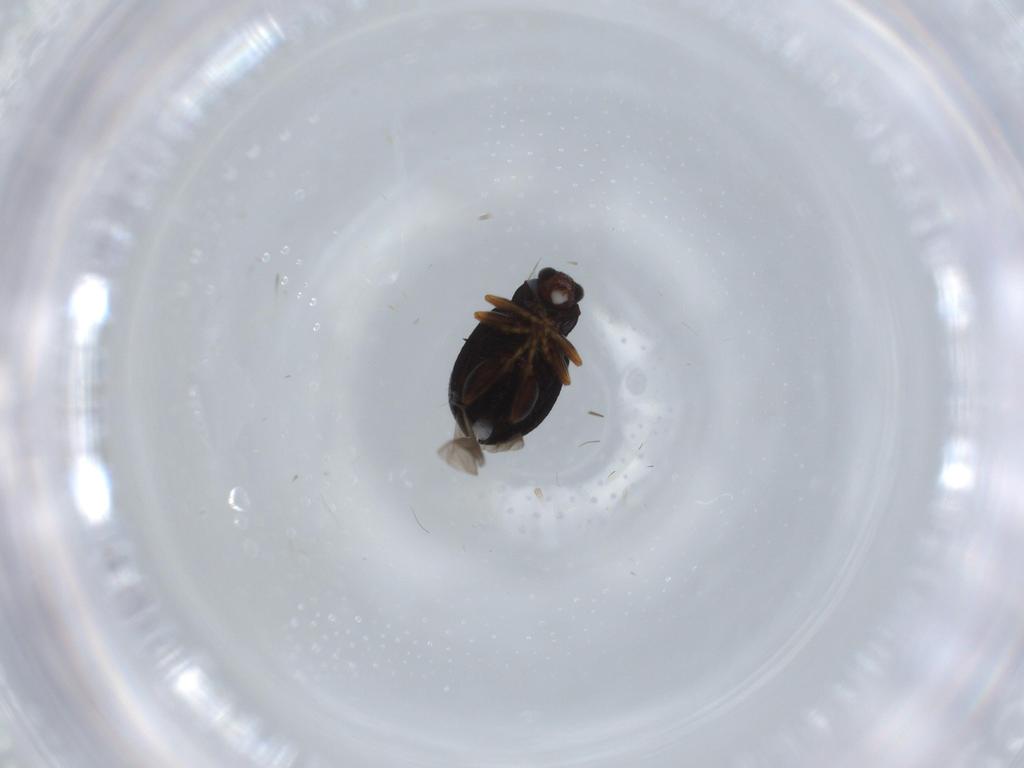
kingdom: Animalia
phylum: Arthropoda
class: Insecta
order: Coleoptera
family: Chrysomelidae
